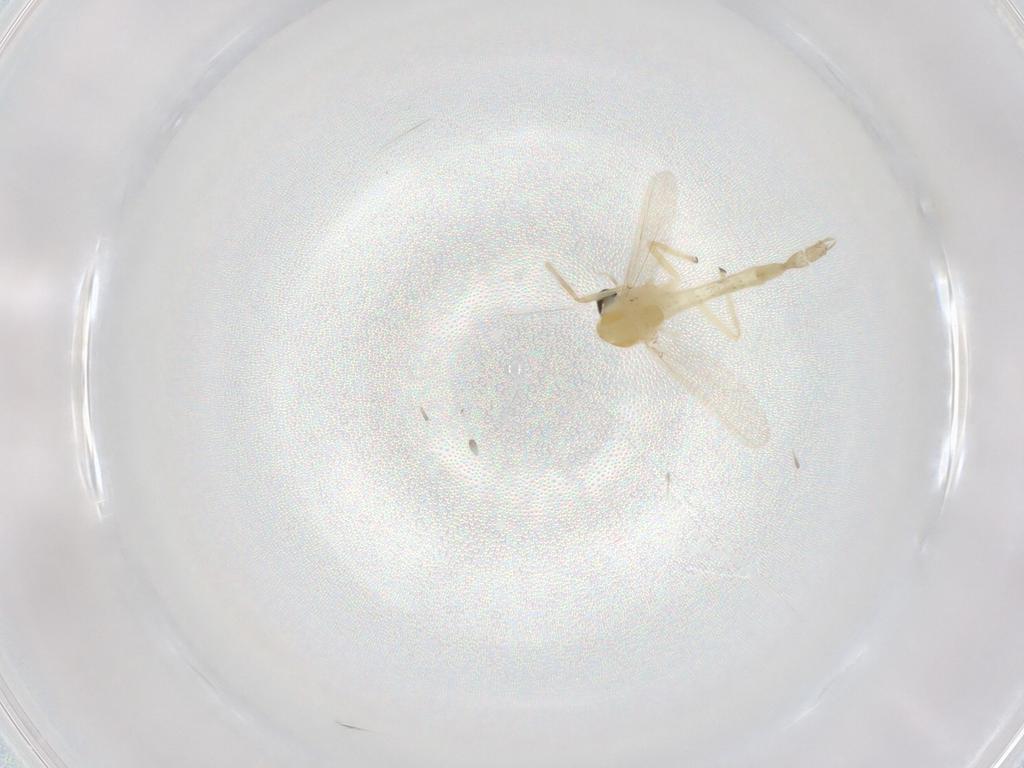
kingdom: Animalia
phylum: Arthropoda
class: Insecta
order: Diptera
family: Chironomidae
